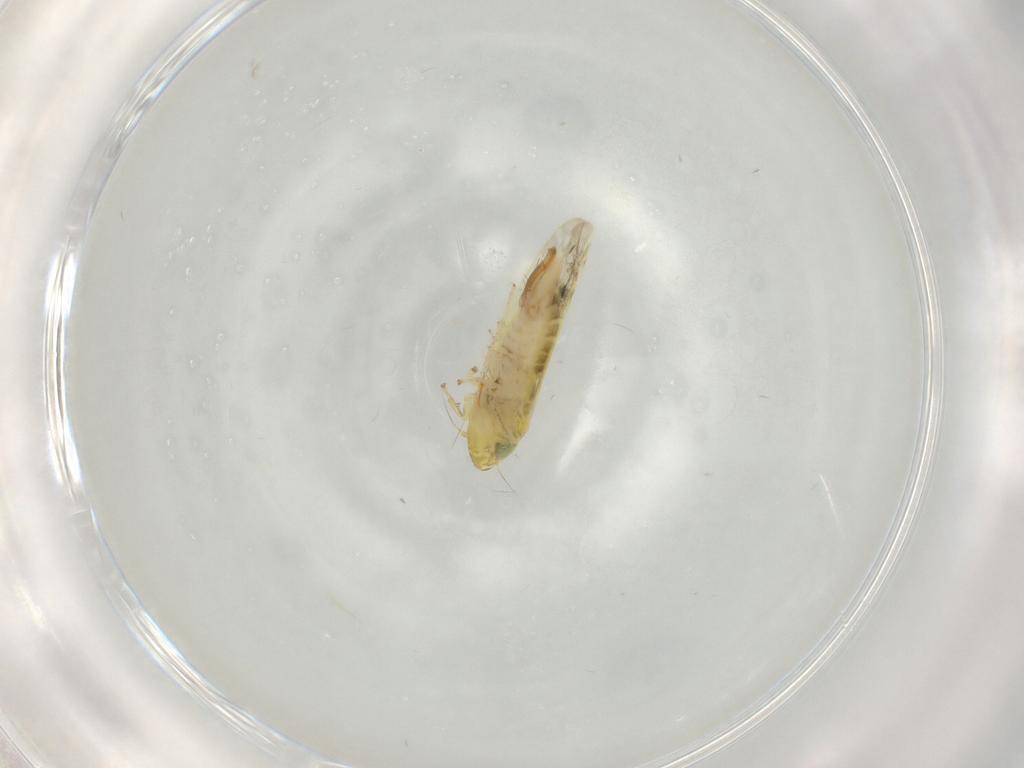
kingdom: Animalia
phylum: Arthropoda
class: Insecta
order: Hemiptera
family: Cicadellidae
